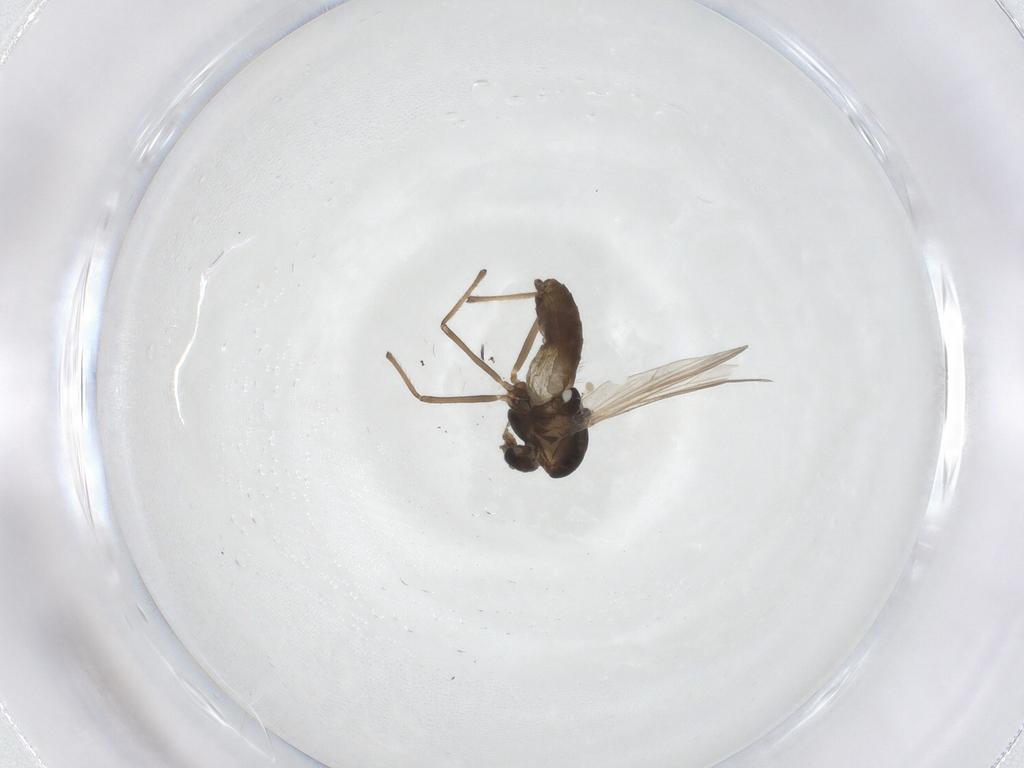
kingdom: Animalia
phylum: Arthropoda
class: Insecta
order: Diptera
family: Chironomidae
